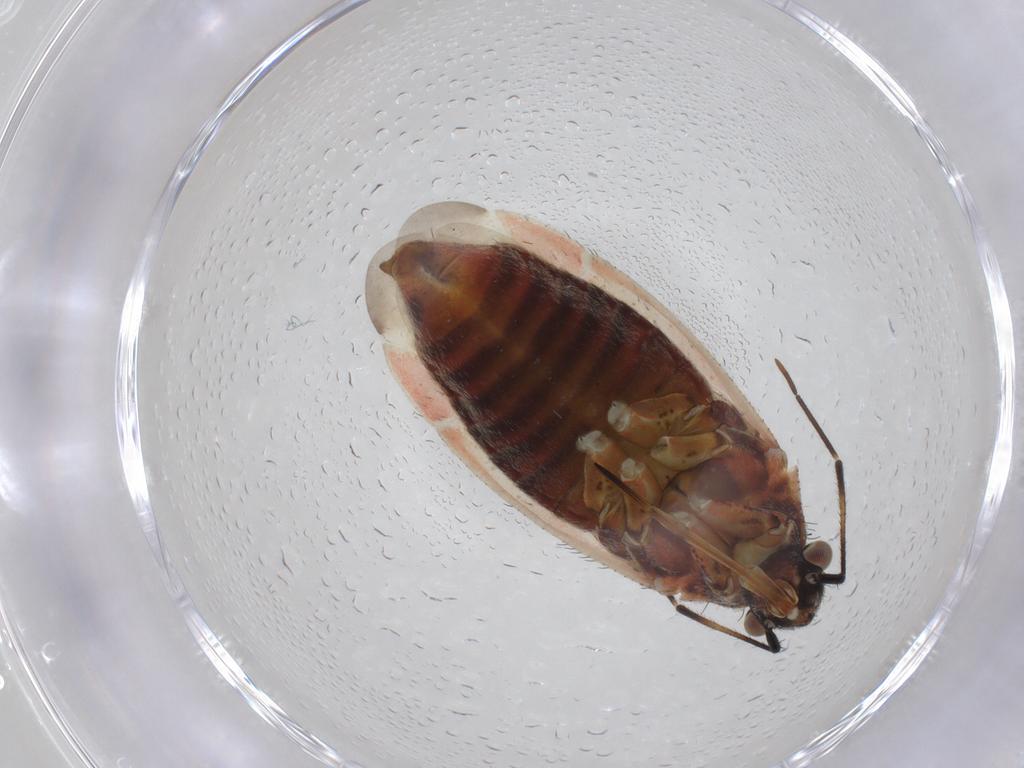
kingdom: Animalia
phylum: Arthropoda
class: Insecta
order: Hemiptera
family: Miridae
